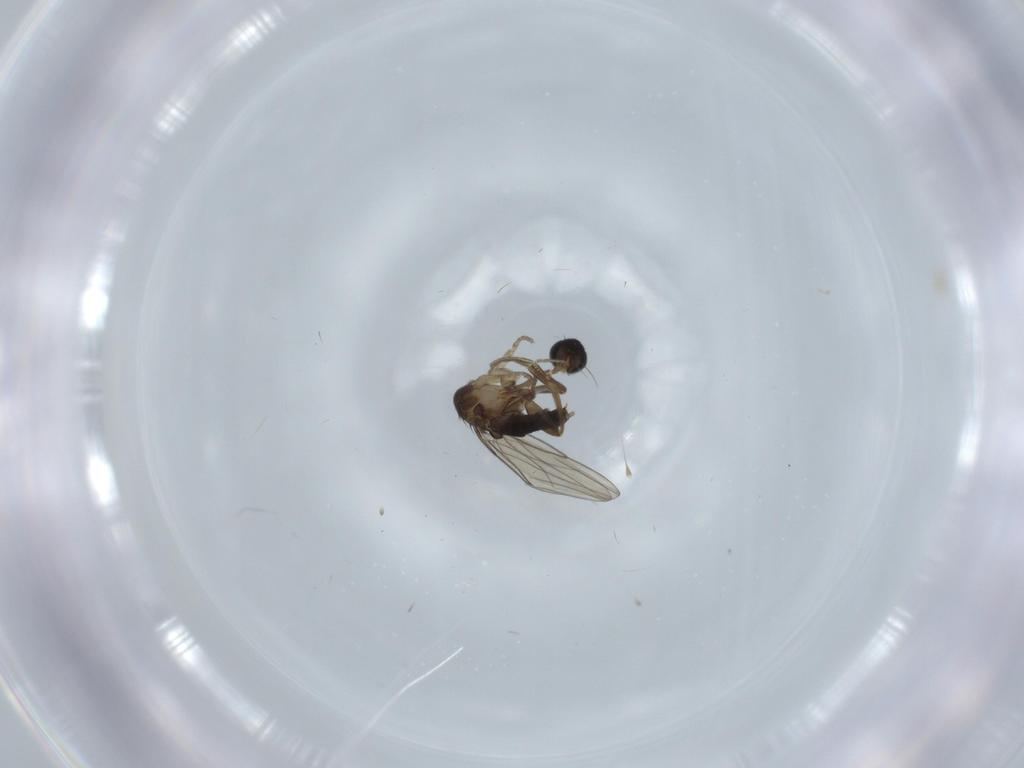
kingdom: Animalia
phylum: Arthropoda
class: Insecta
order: Diptera
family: Phoridae
